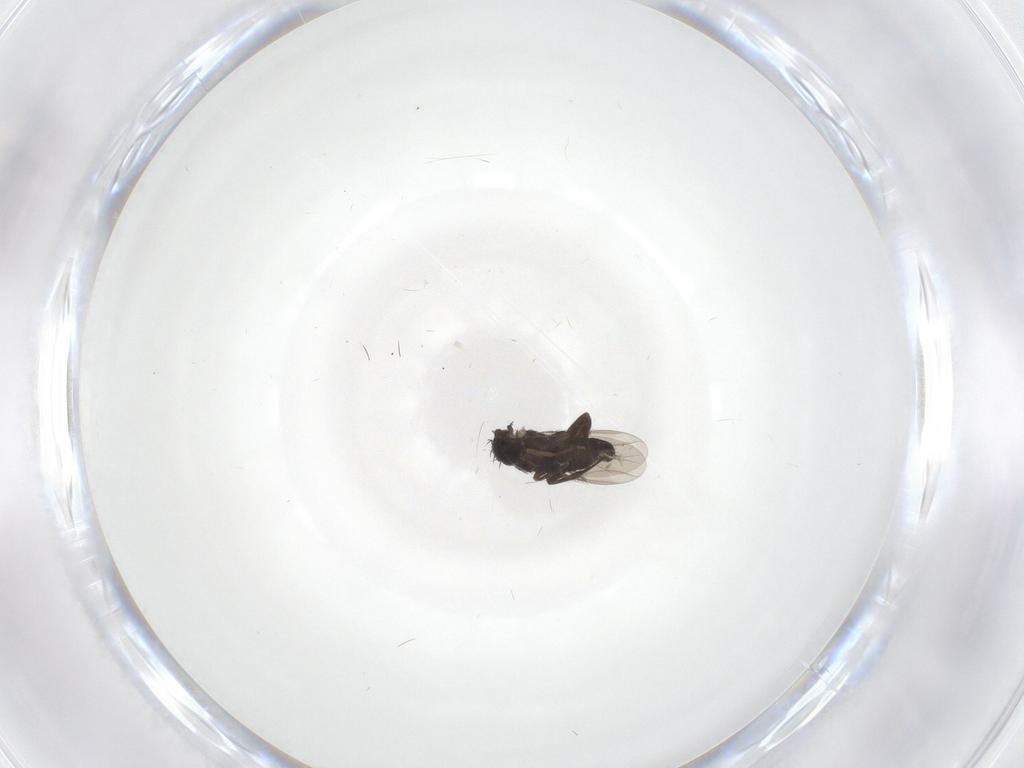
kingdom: Animalia
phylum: Arthropoda
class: Insecta
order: Diptera
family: Phoridae
